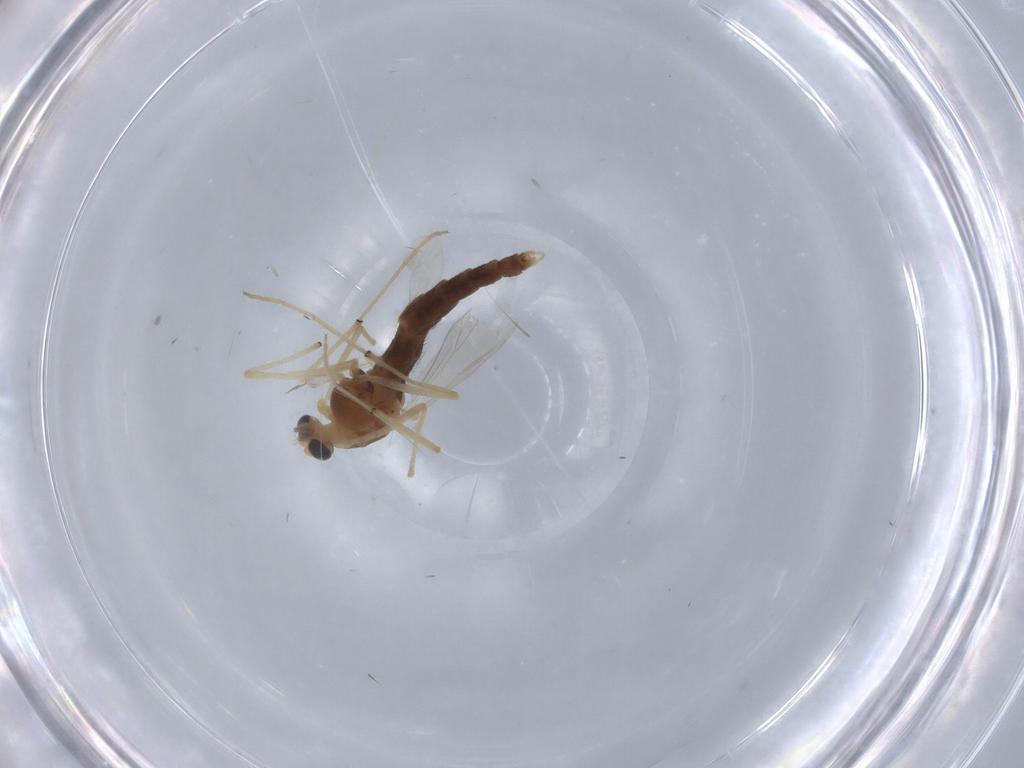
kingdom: Animalia
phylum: Arthropoda
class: Insecta
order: Diptera
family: Chironomidae
